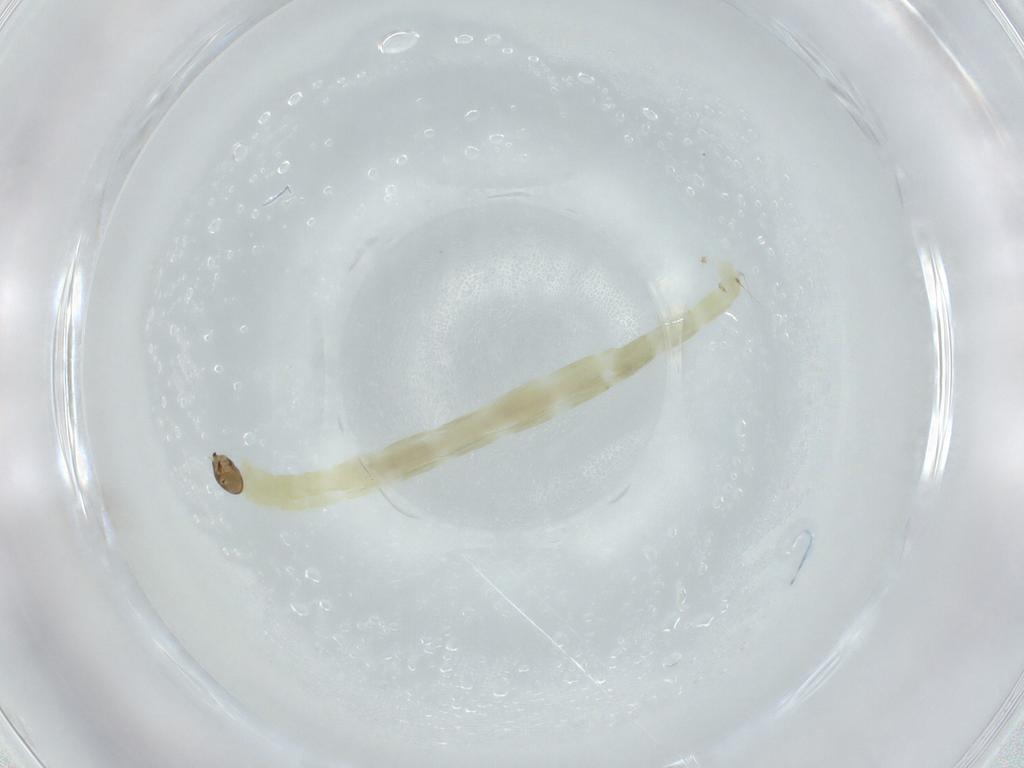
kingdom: Animalia
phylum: Arthropoda
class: Insecta
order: Diptera
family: Chironomidae
